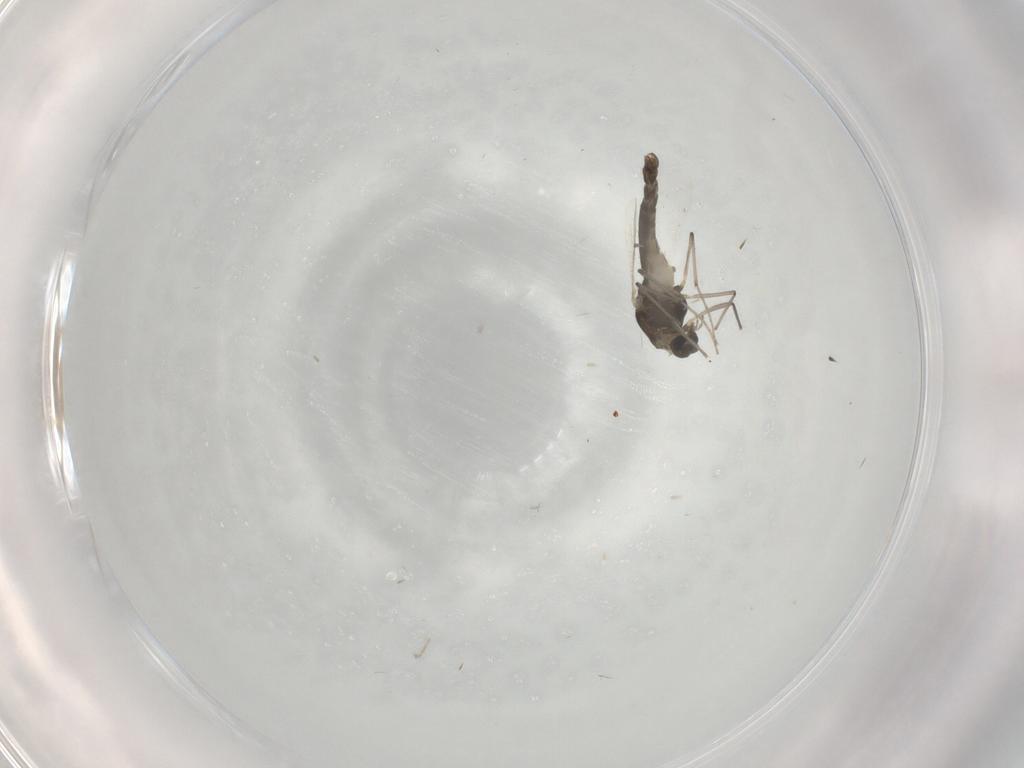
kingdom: Animalia
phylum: Arthropoda
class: Insecta
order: Diptera
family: Chironomidae
